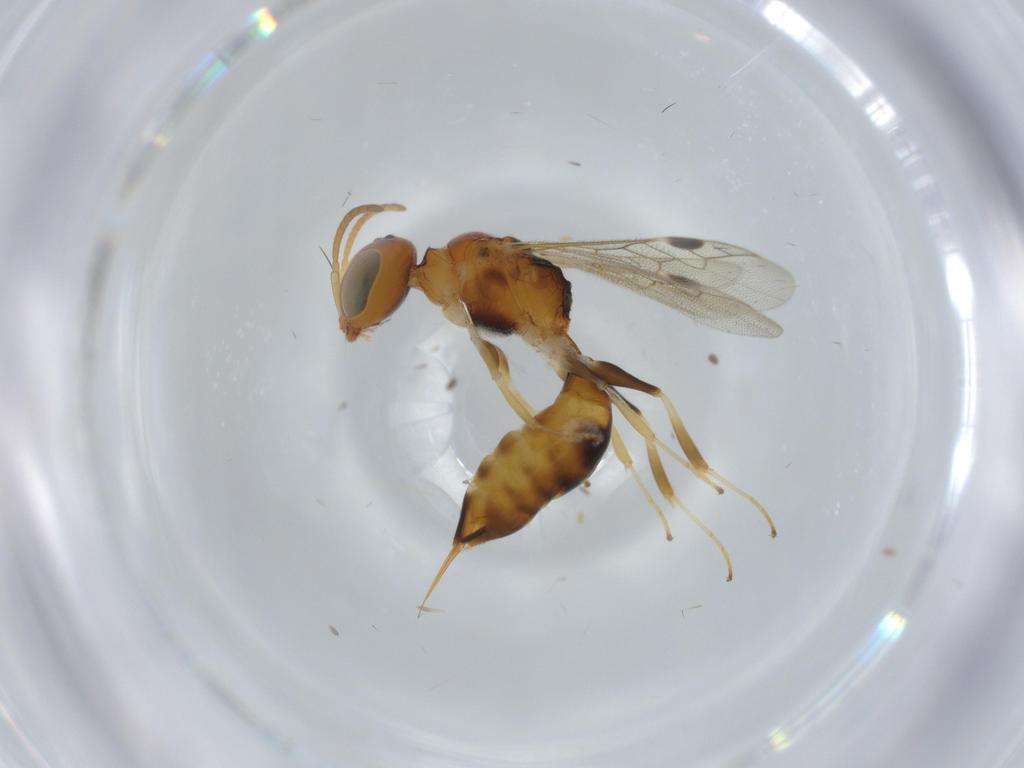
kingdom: Animalia
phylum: Arthropoda
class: Insecta
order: Hymenoptera
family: Pemphredonidae
